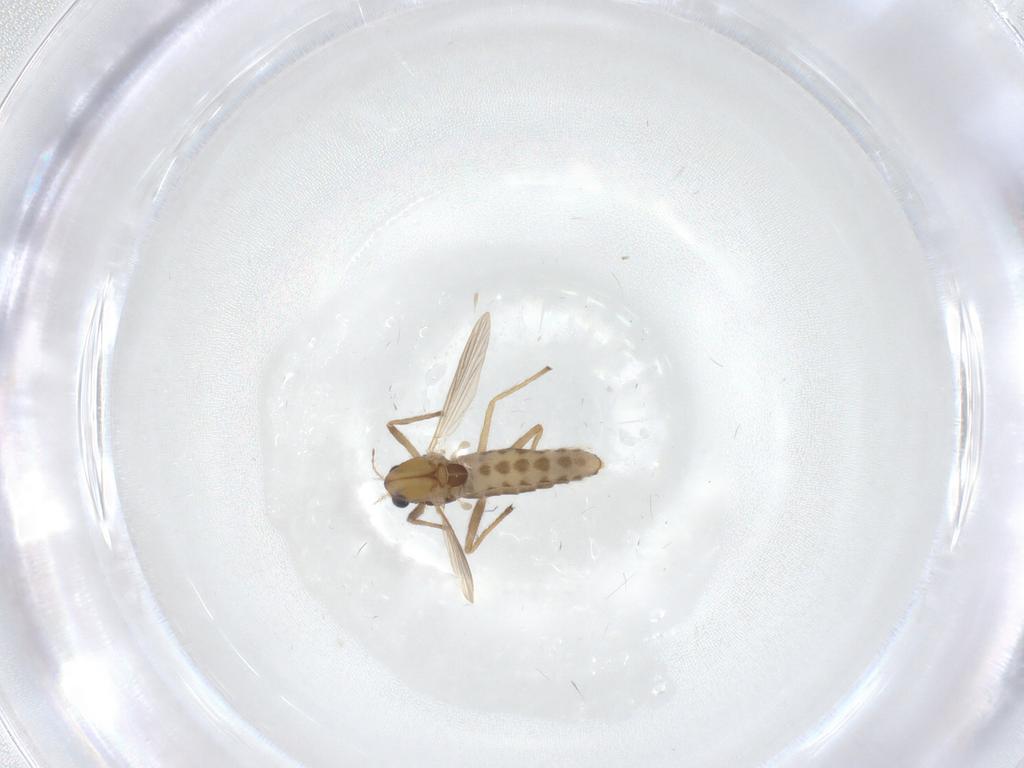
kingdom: Animalia
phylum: Arthropoda
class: Insecta
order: Diptera
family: Chironomidae
